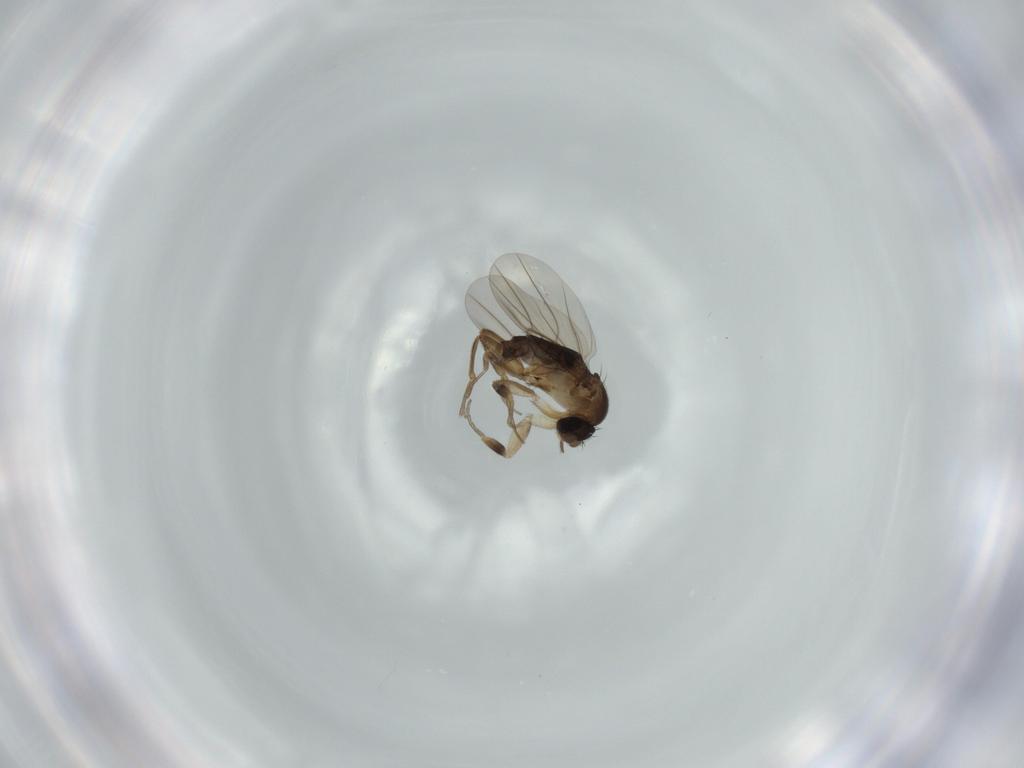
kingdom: Animalia
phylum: Arthropoda
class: Insecta
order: Diptera
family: Phoridae
